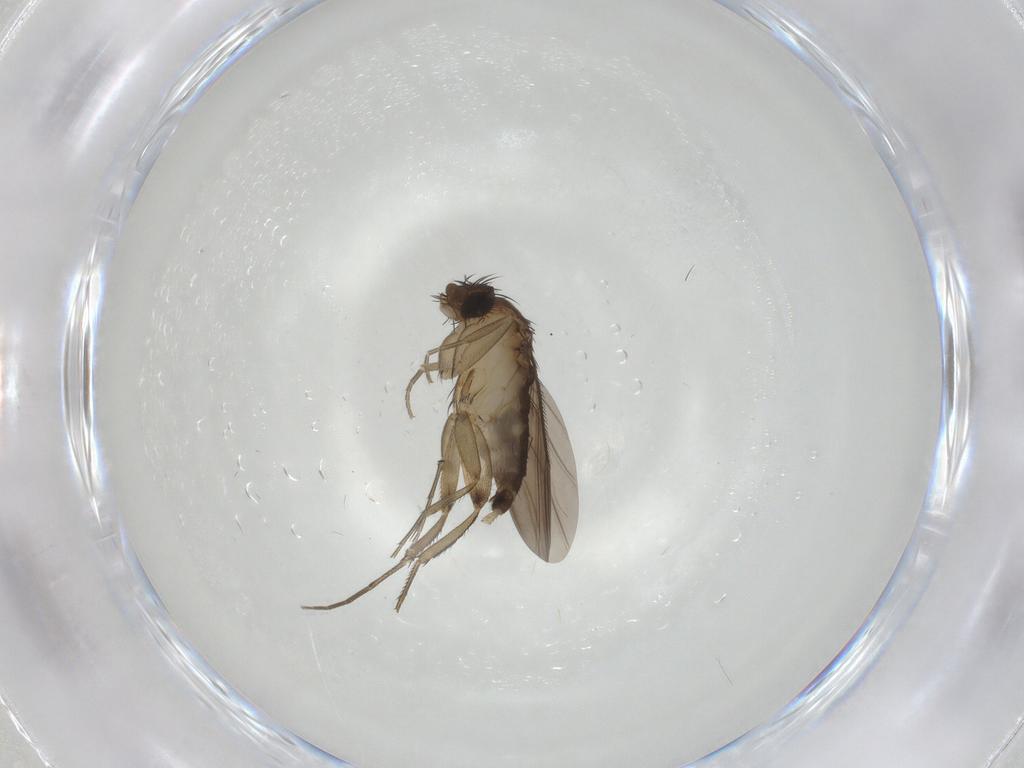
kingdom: Animalia
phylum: Arthropoda
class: Insecta
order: Diptera
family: Phoridae
